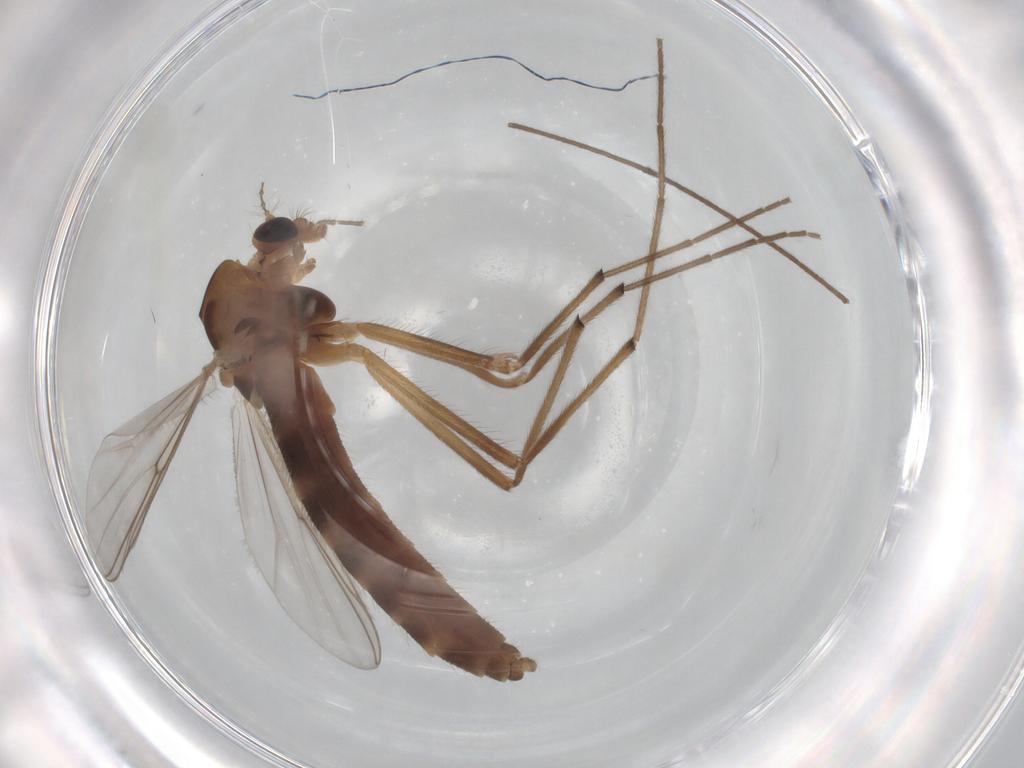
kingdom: Animalia
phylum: Arthropoda
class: Insecta
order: Diptera
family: Chironomidae
